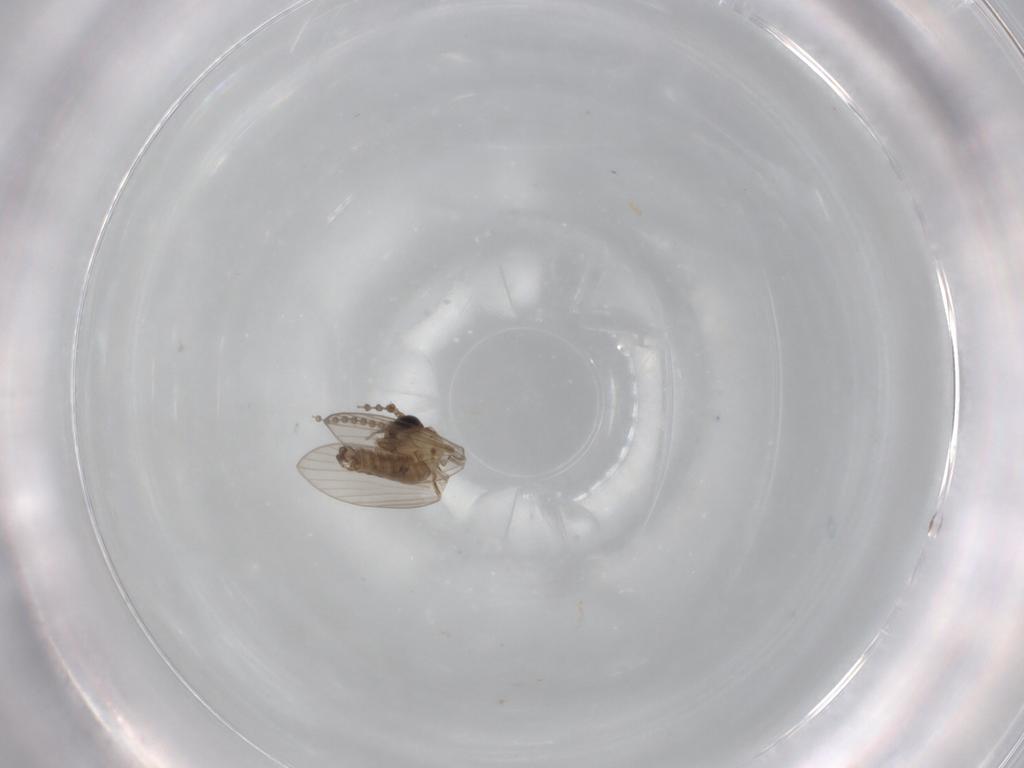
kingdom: Animalia
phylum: Arthropoda
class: Insecta
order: Diptera
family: Psychodidae
